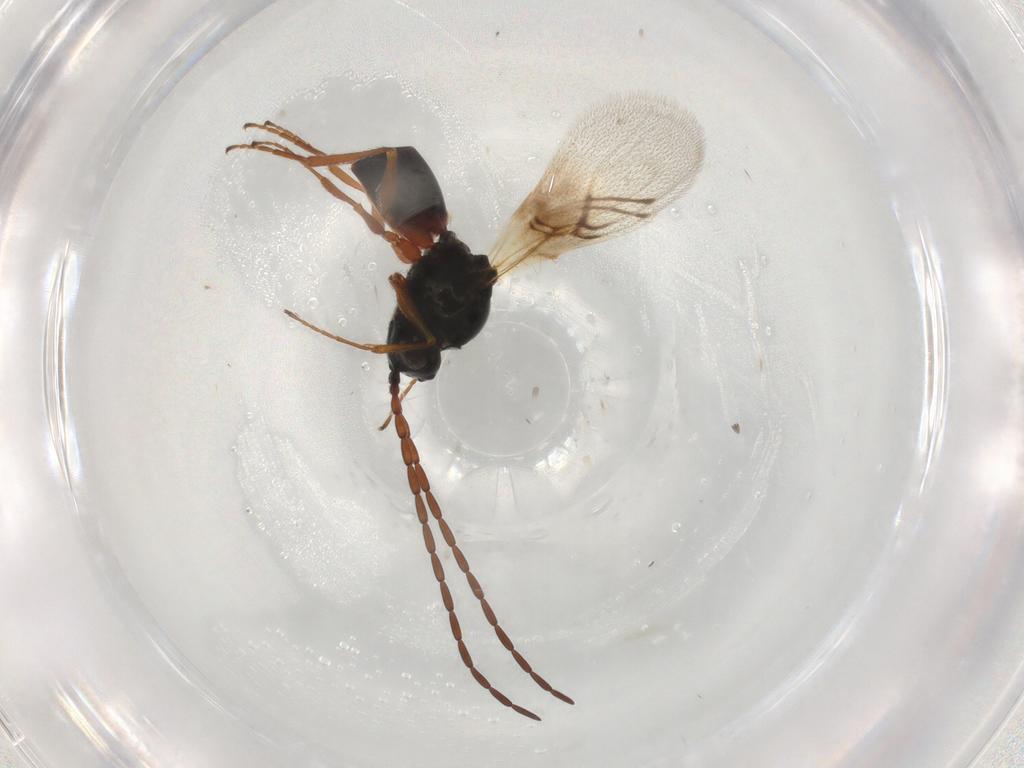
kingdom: Animalia
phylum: Arthropoda
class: Insecta
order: Hymenoptera
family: Figitidae
